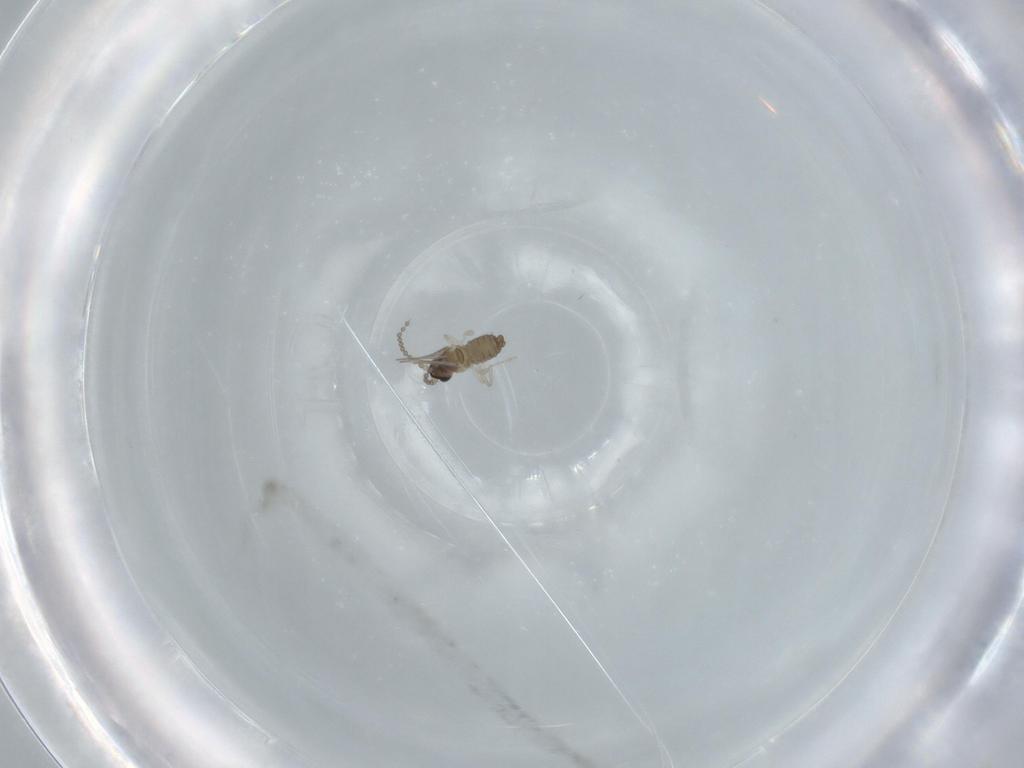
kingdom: Animalia
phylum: Arthropoda
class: Insecta
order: Diptera
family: Cecidomyiidae
